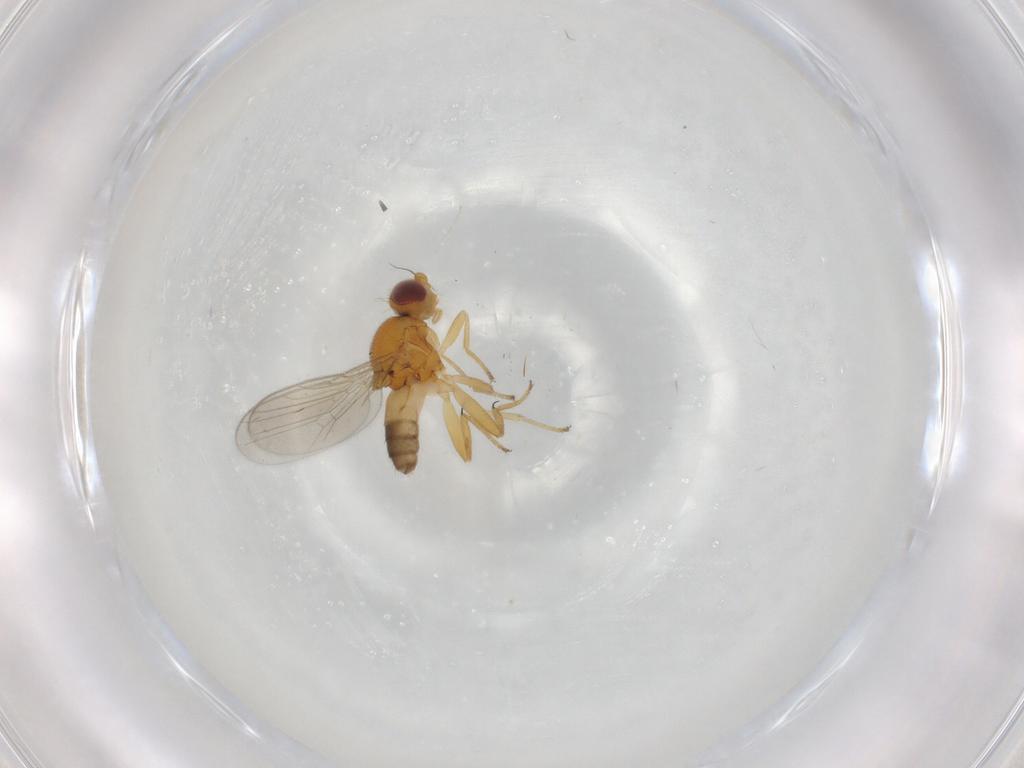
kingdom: Animalia
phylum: Arthropoda
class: Insecta
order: Diptera
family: Chloropidae
